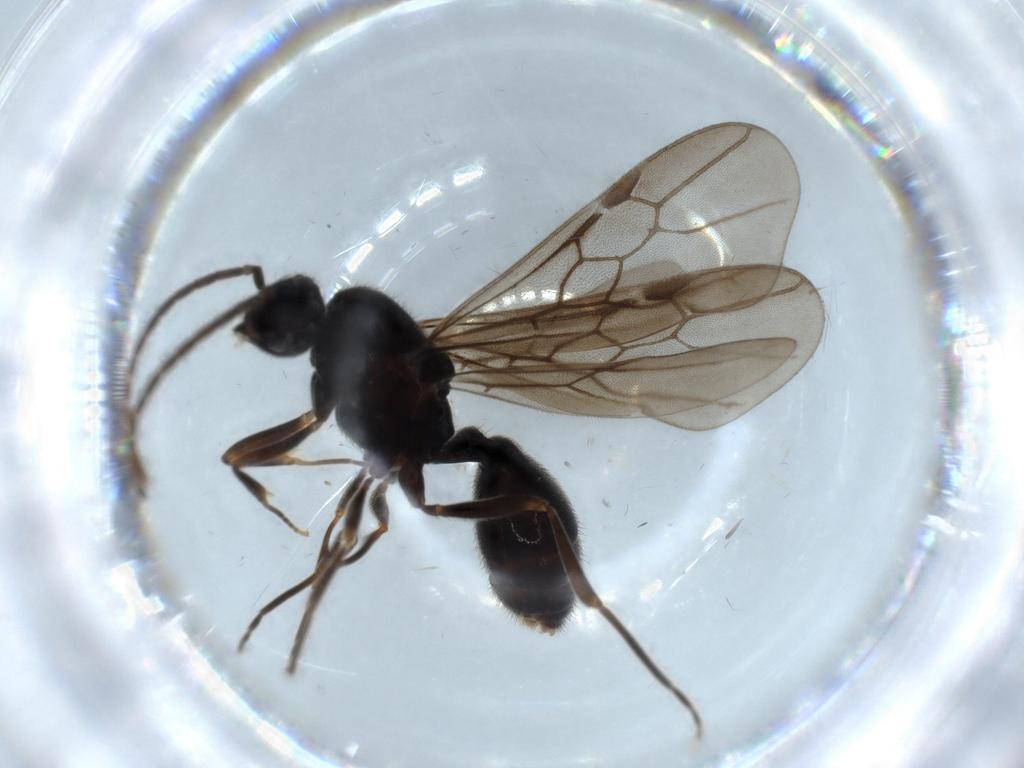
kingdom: Animalia
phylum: Arthropoda
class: Insecta
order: Hymenoptera
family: Formicidae
